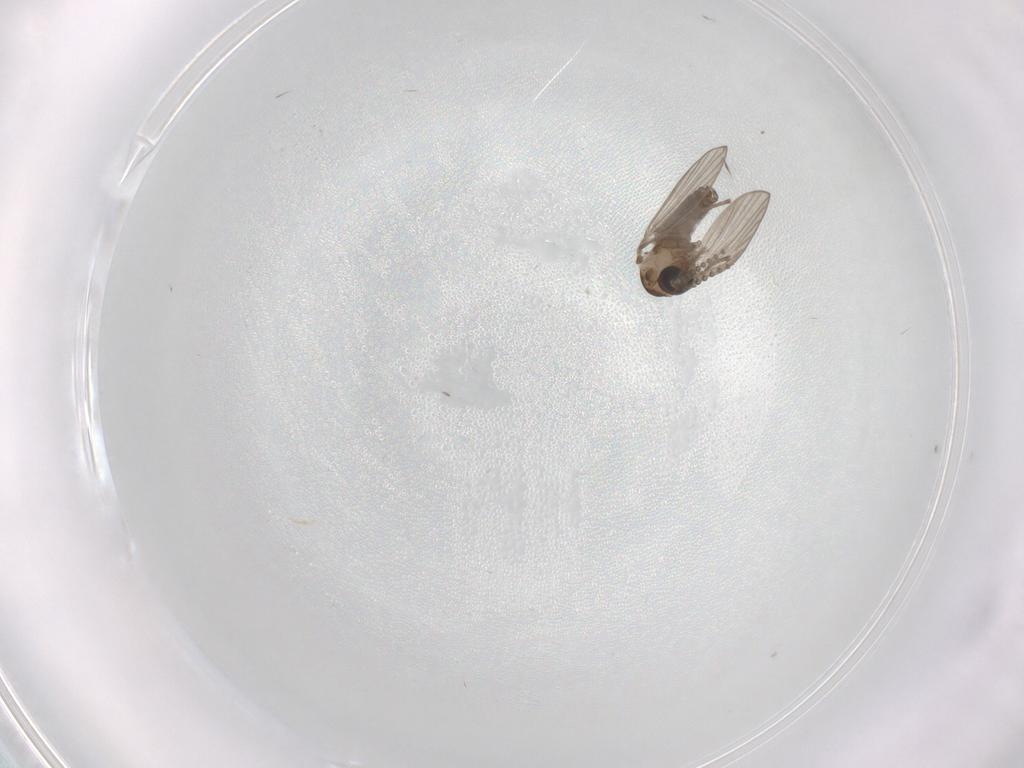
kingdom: Animalia
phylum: Arthropoda
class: Insecta
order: Diptera
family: Psychodidae
